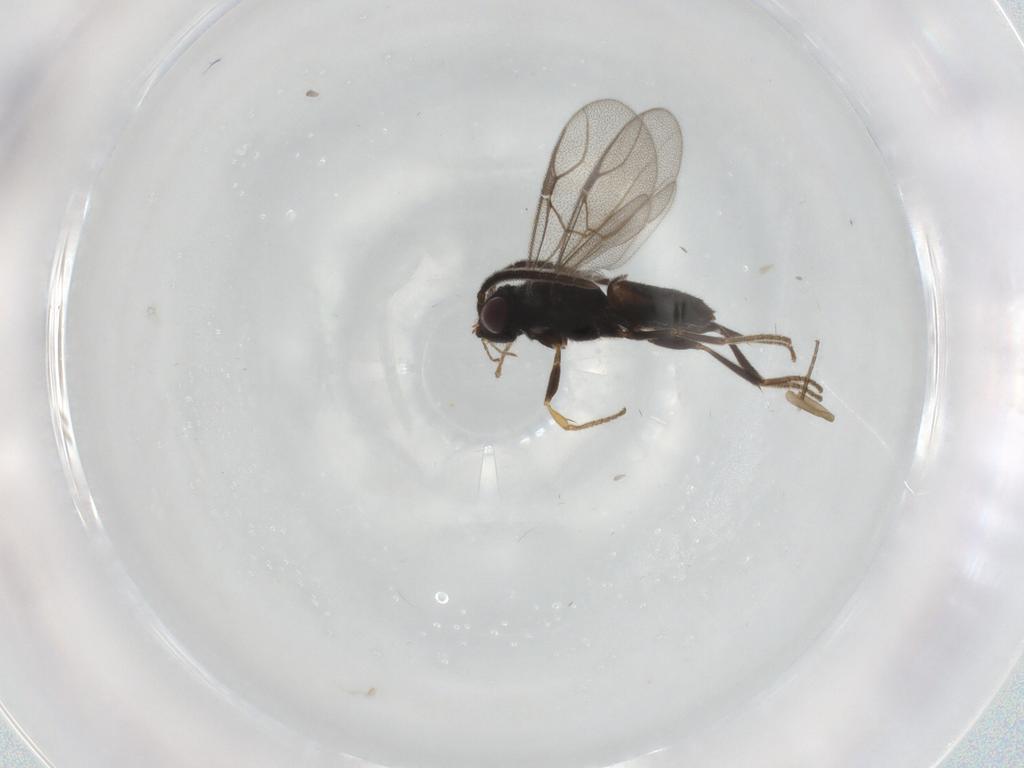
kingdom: Animalia
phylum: Arthropoda
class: Insecta
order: Hymenoptera
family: Dryinidae
